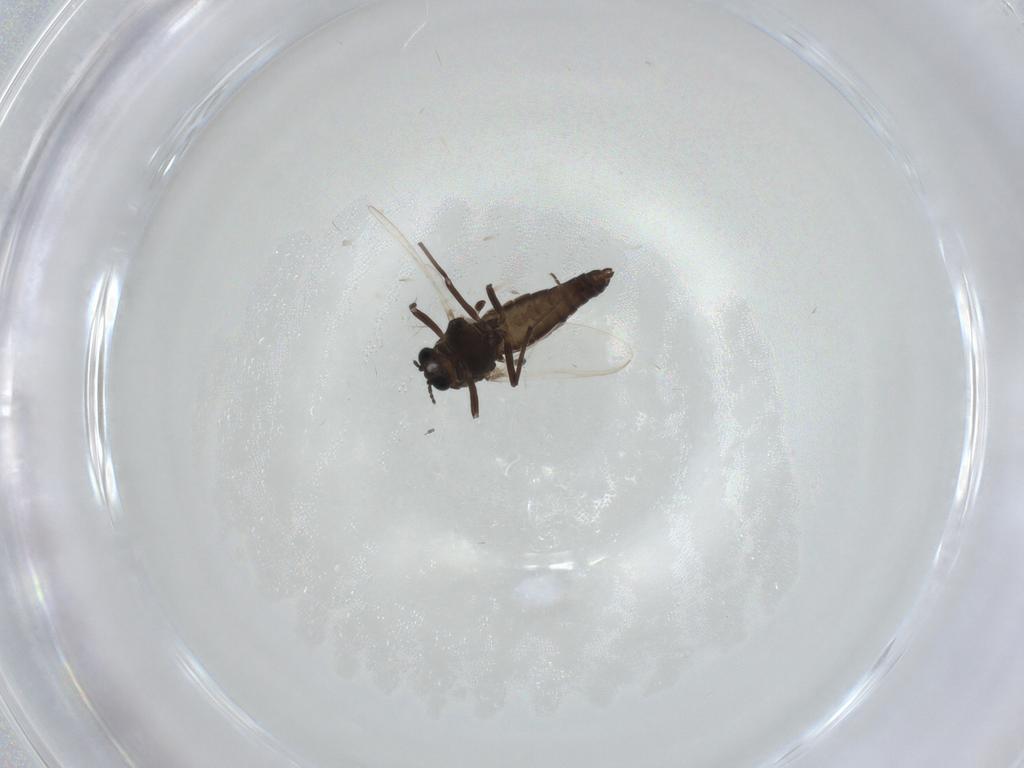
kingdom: Animalia
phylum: Arthropoda
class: Insecta
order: Diptera
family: Chironomidae
